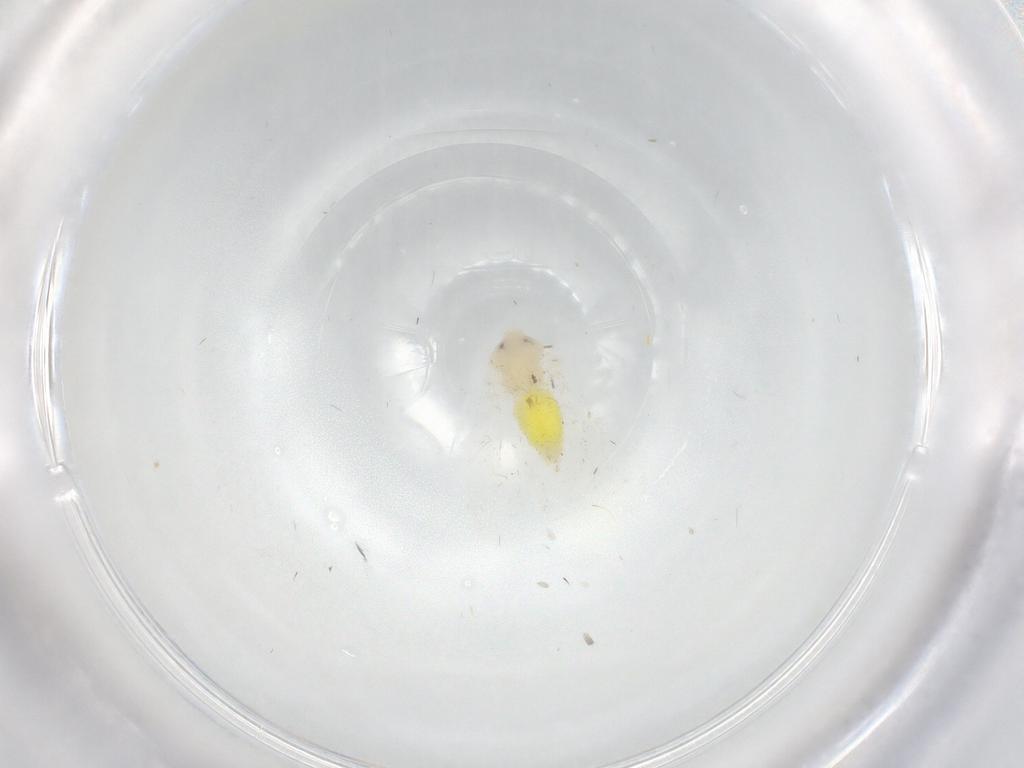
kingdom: Animalia
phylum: Arthropoda
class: Insecta
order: Hemiptera
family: Aleyrodidae
